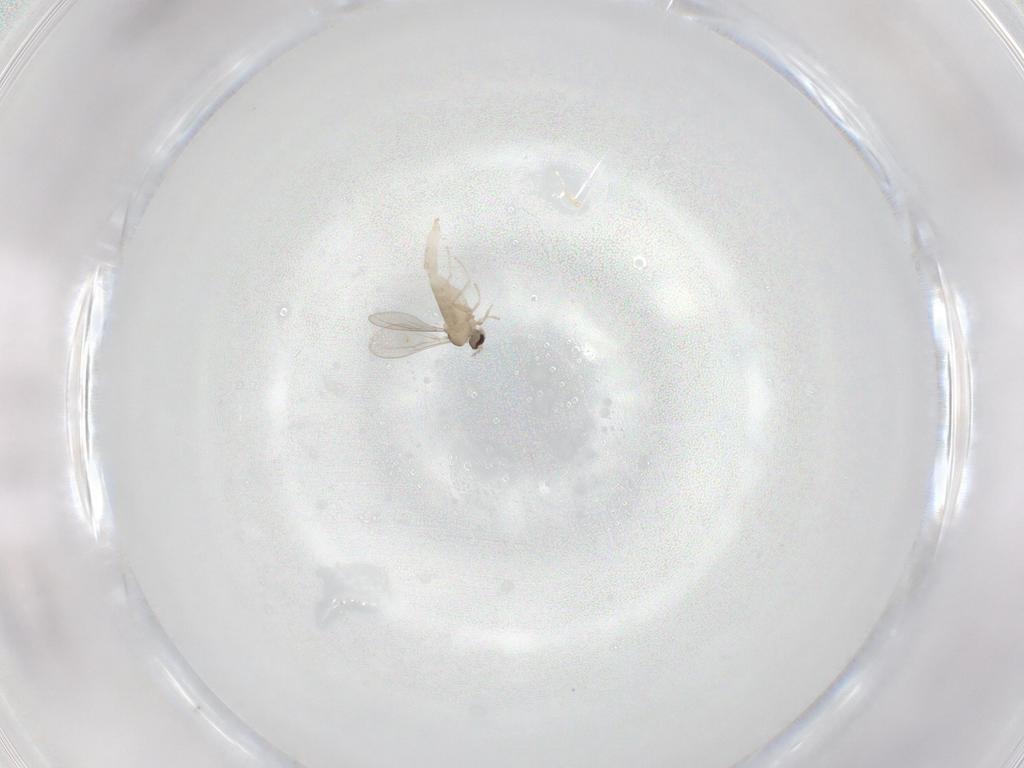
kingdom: Animalia
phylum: Arthropoda
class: Insecta
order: Diptera
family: Cecidomyiidae
